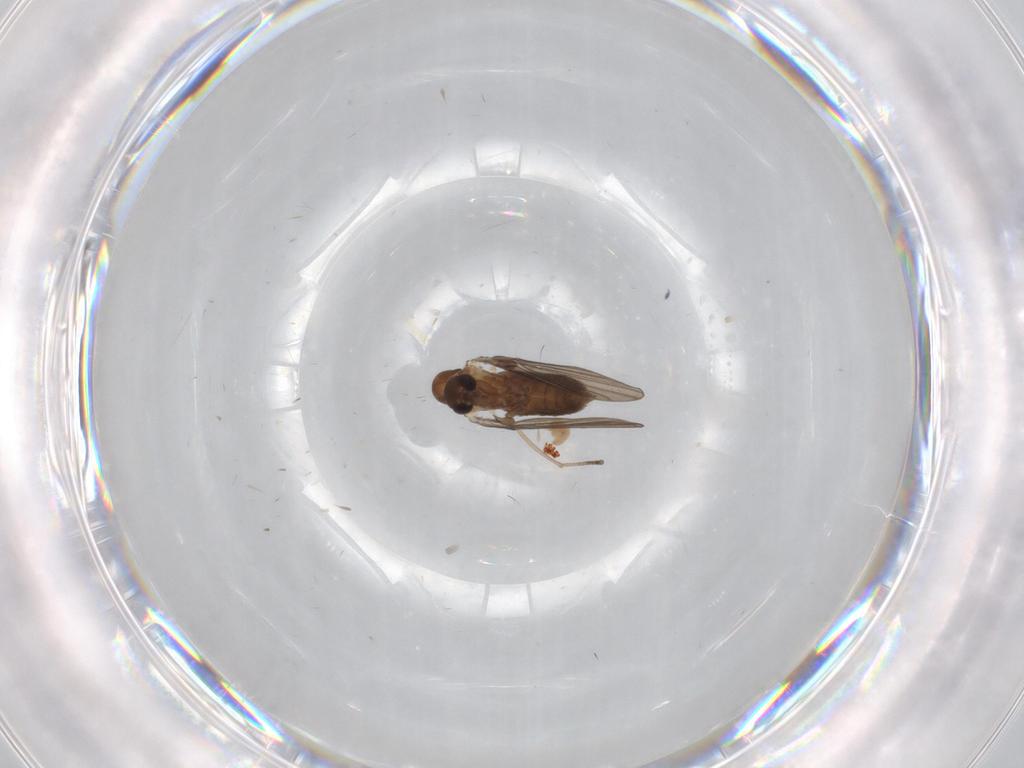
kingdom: Animalia
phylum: Arthropoda
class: Insecta
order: Diptera
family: Psychodidae
